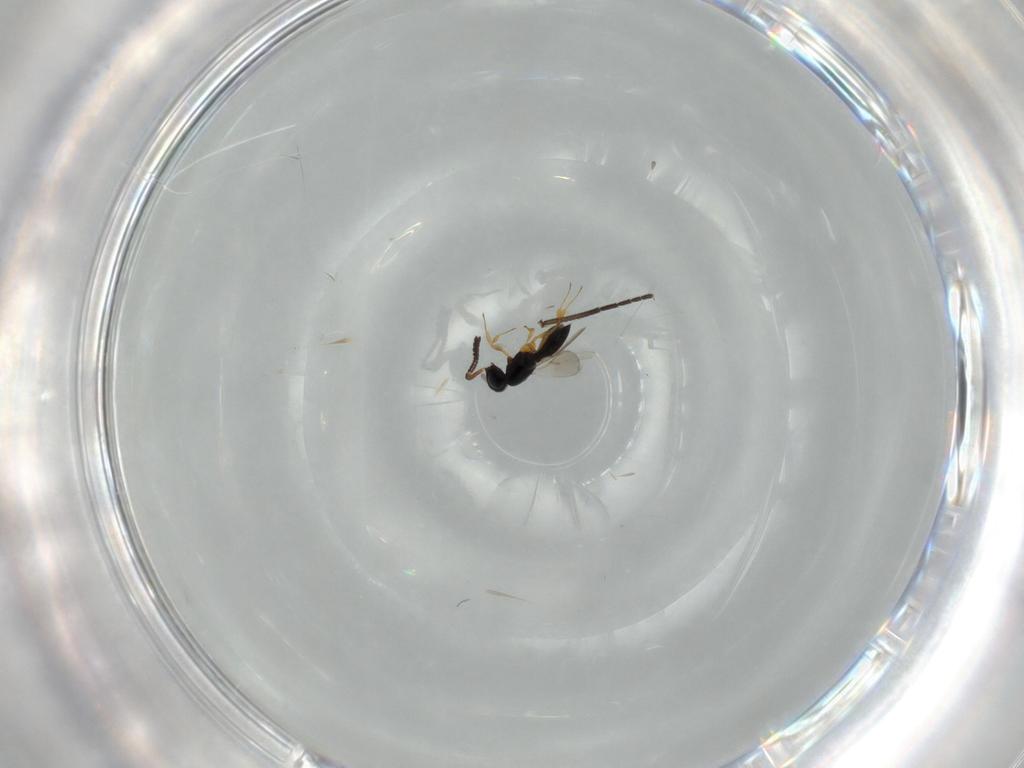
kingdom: Animalia
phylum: Arthropoda
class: Insecta
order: Hymenoptera
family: Scelionidae
